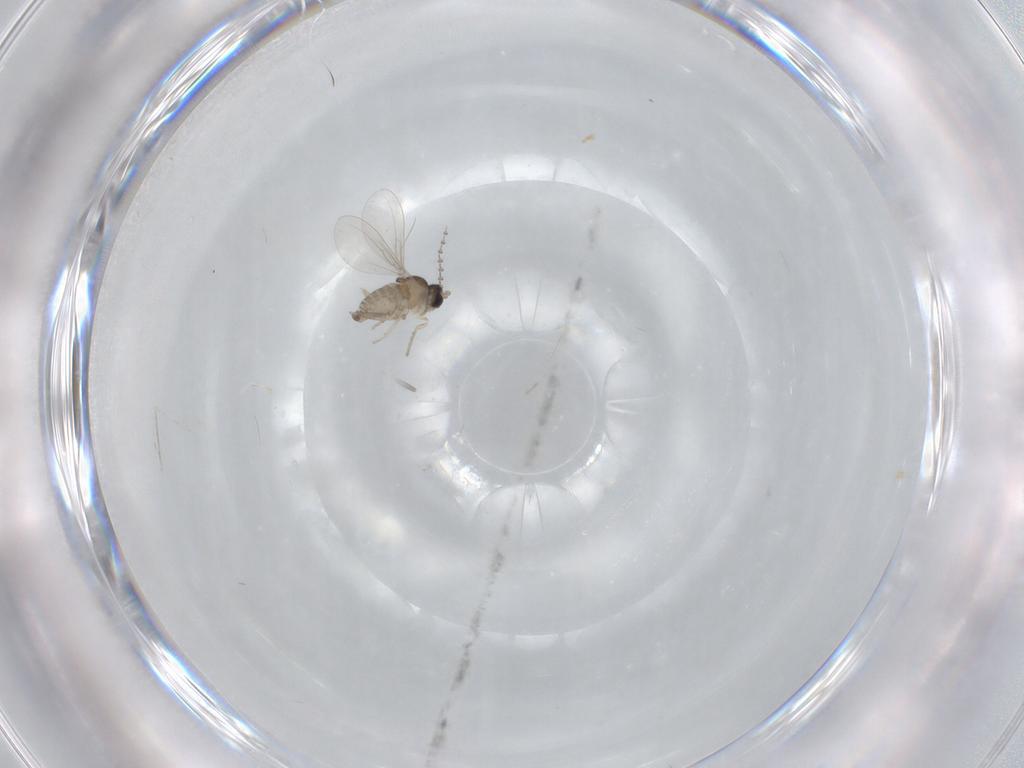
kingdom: Animalia
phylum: Arthropoda
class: Insecta
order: Diptera
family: Cecidomyiidae
